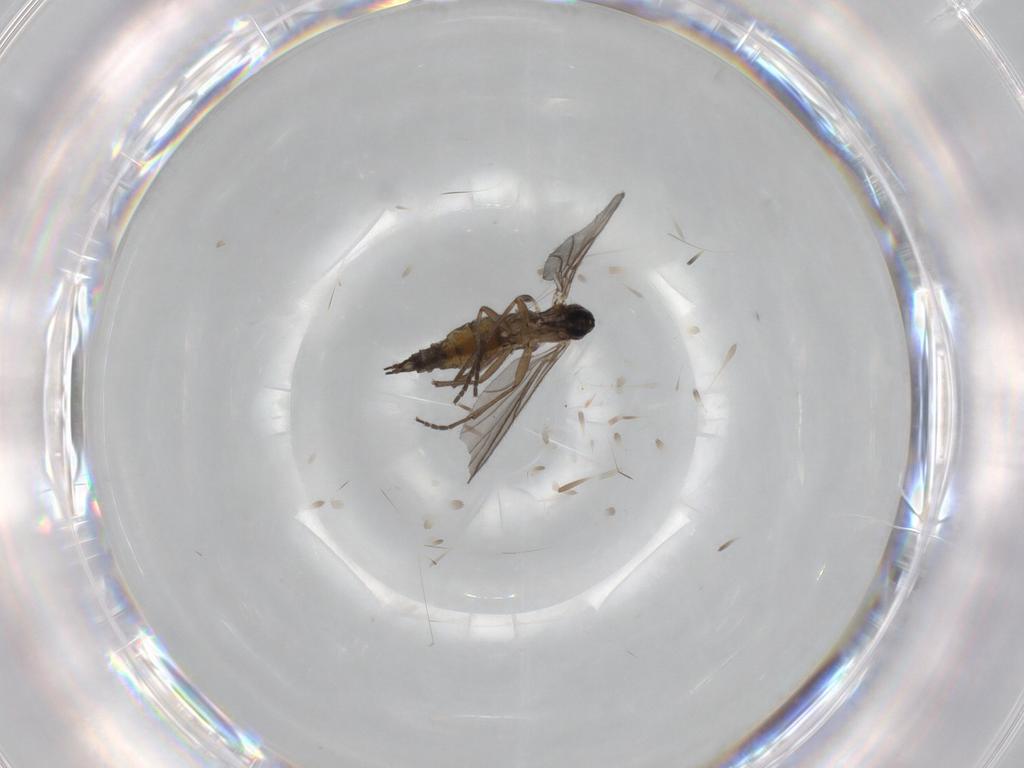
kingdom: Animalia
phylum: Arthropoda
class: Insecta
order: Diptera
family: Sciaridae
